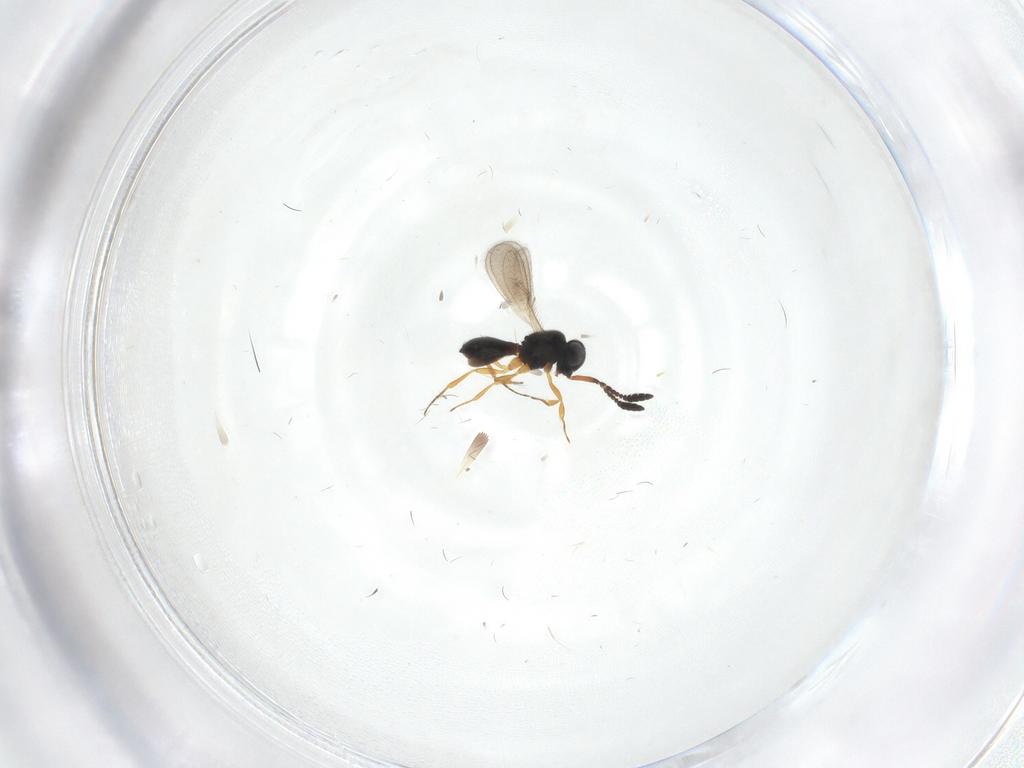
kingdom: Animalia
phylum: Arthropoda
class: Insecta
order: Hymenoptera
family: Scelionidae
